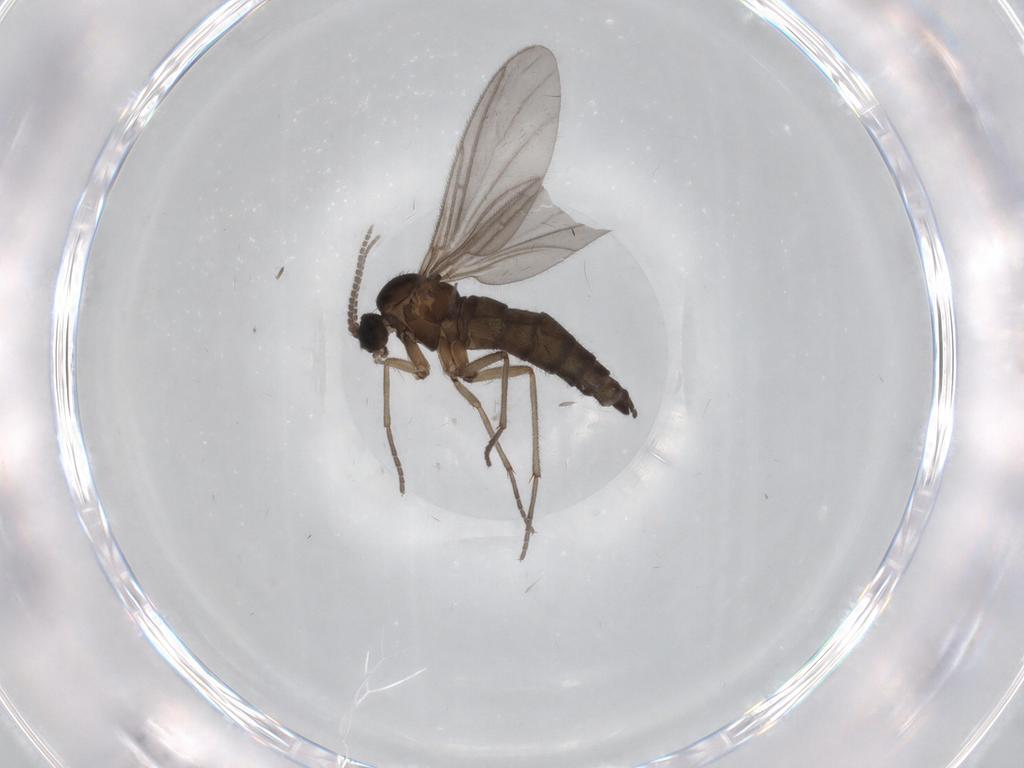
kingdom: Animalia
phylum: Arthropoda
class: Insecta
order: Diptera
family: Sciaridae
